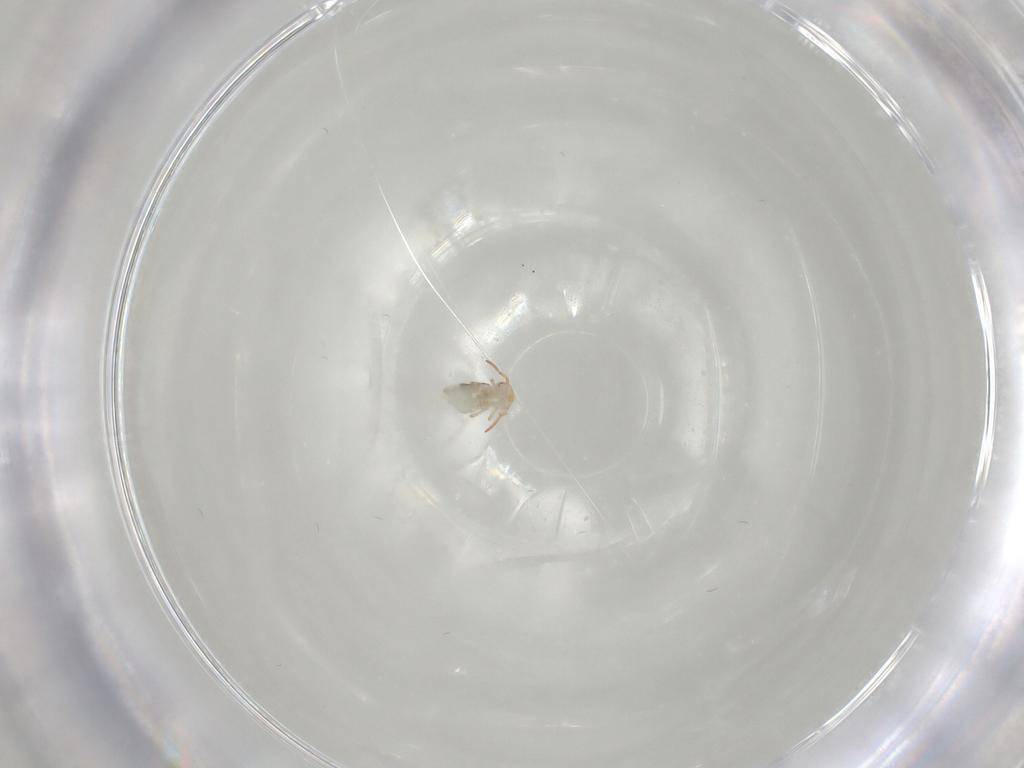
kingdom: Animalia
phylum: Arthropoda
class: Collembola
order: Symphypleona
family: Bourletiellidae
